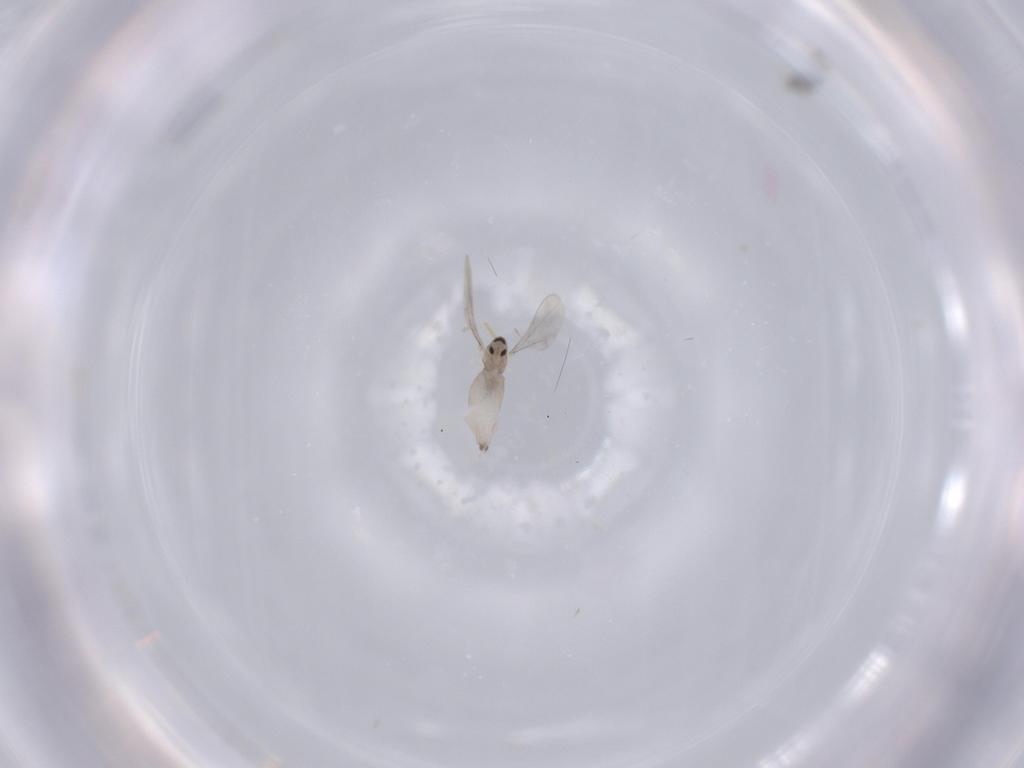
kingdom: Animalia
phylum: Arthropoda
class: Insecta
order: Diptera
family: Cecidomyiidae
